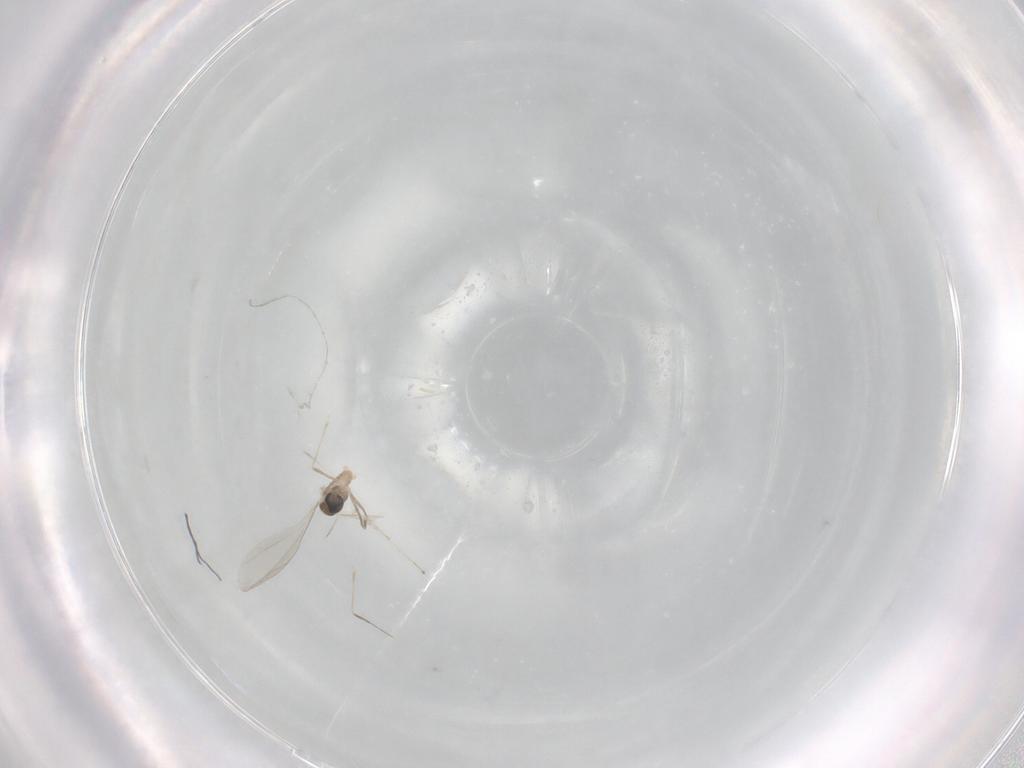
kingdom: Animalia
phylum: Arthropoda
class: Insecta
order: Diptera
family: Cecidomyiidae
